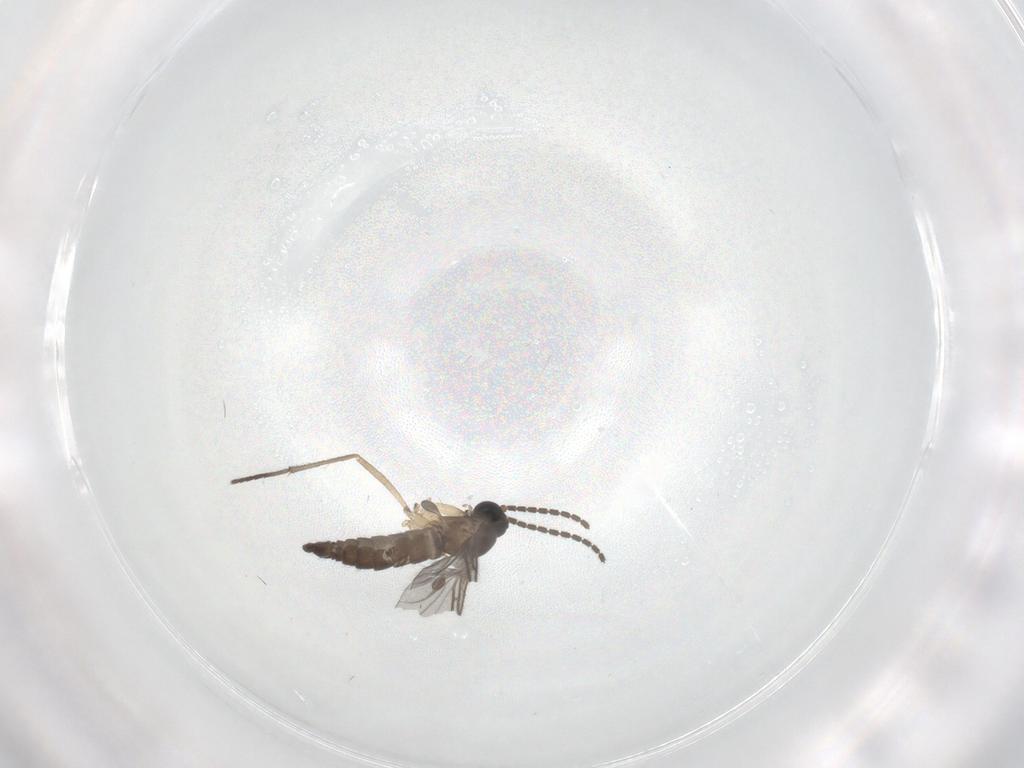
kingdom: Animalia
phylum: Arthropoda
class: Insecta
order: Diptera
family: Sciaridae
